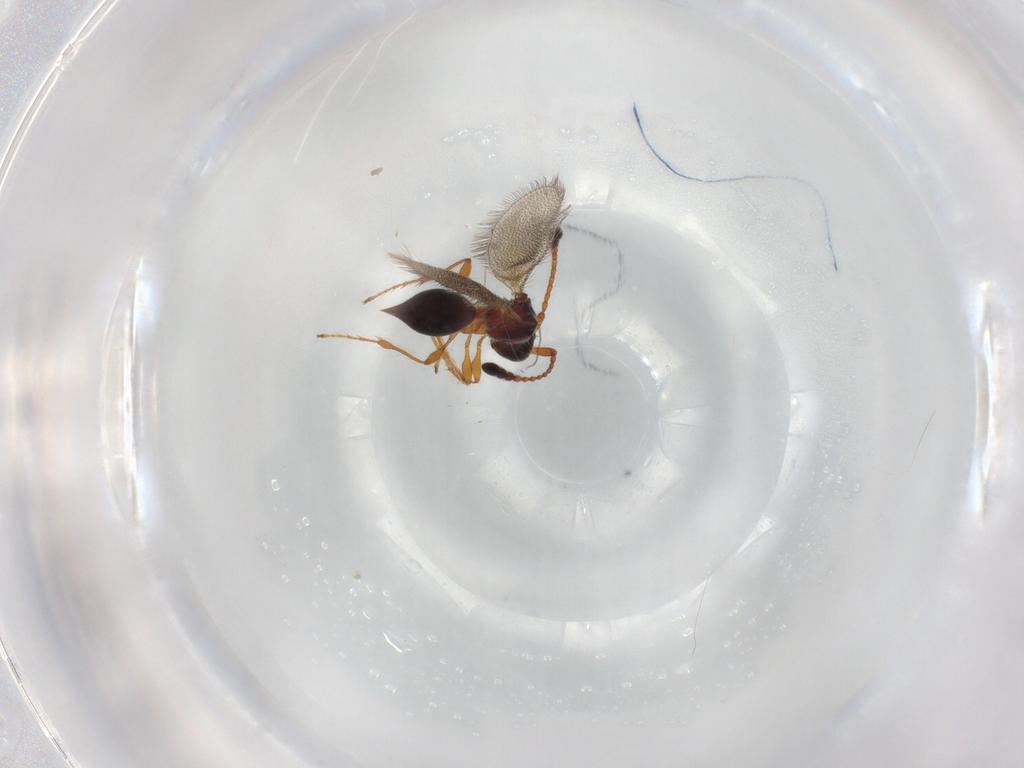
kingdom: Animalia
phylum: Arthropoda
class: Insecta
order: Hymenoptera
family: Diapriidae
